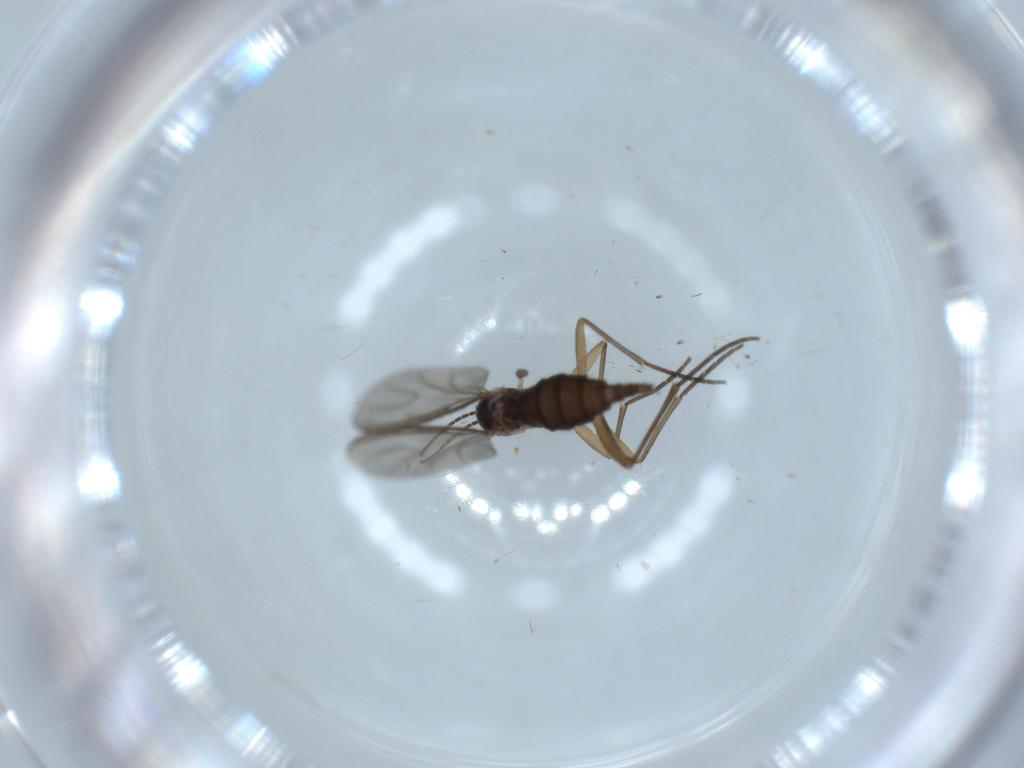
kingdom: Animalia
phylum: Arthropoda
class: Insecta
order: Diptera
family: Sciaridae
